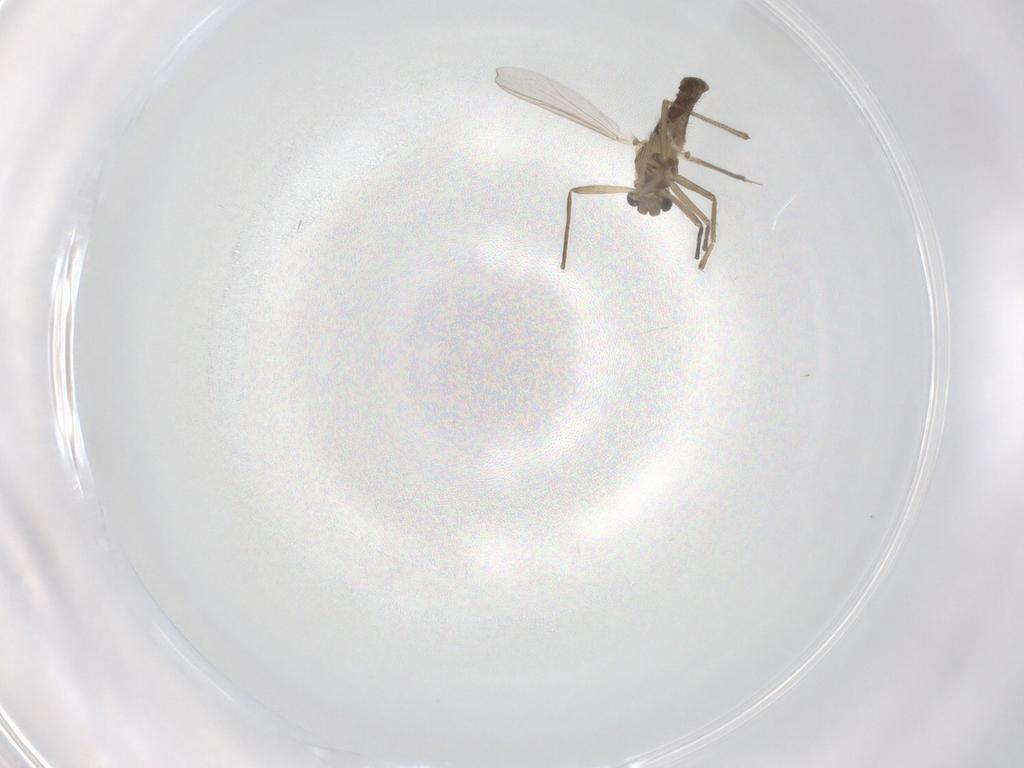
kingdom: Animalia
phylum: Arthropoda
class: Insecta
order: Diptera
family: Chironomidae
